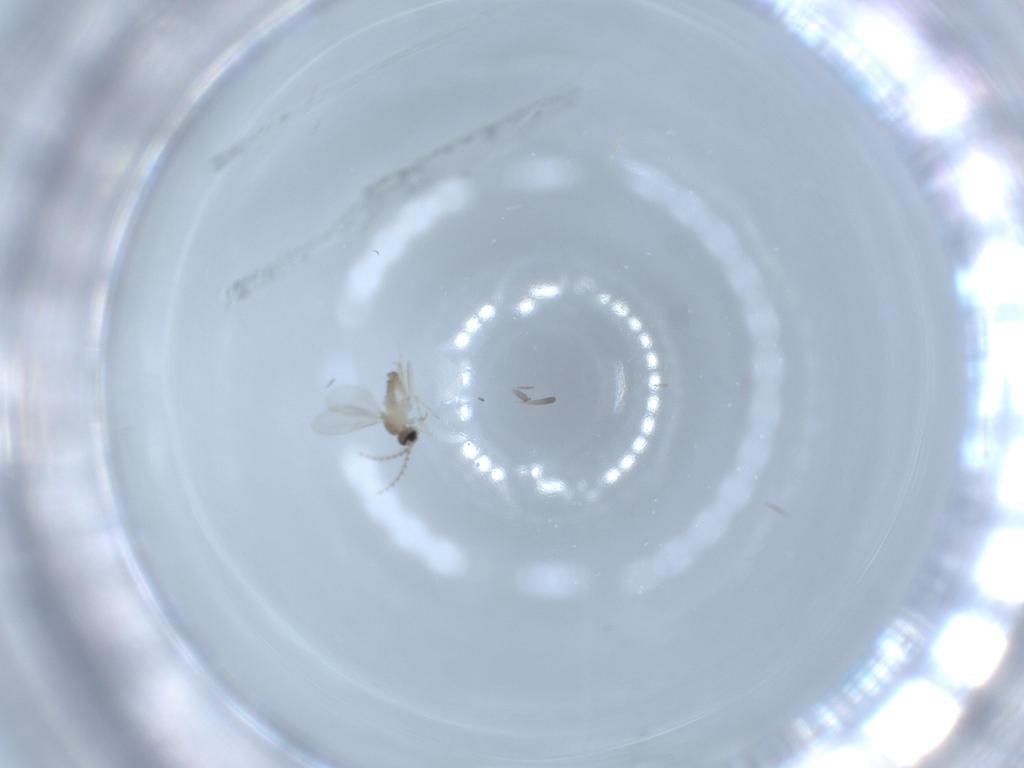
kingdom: Animalia
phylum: Arthropoda
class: Insecta
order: Diptera
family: Cecidomyiidae
